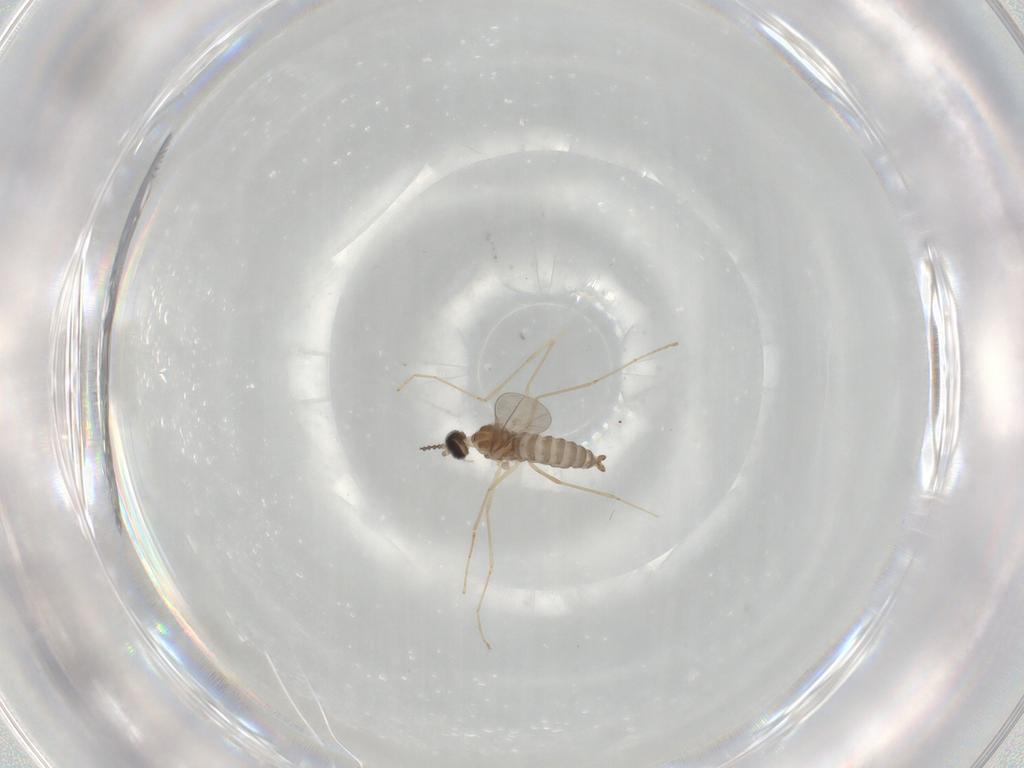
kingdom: Animalia
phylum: Arthropoda
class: Insecta
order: Diptera
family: Cecidomyiidae
